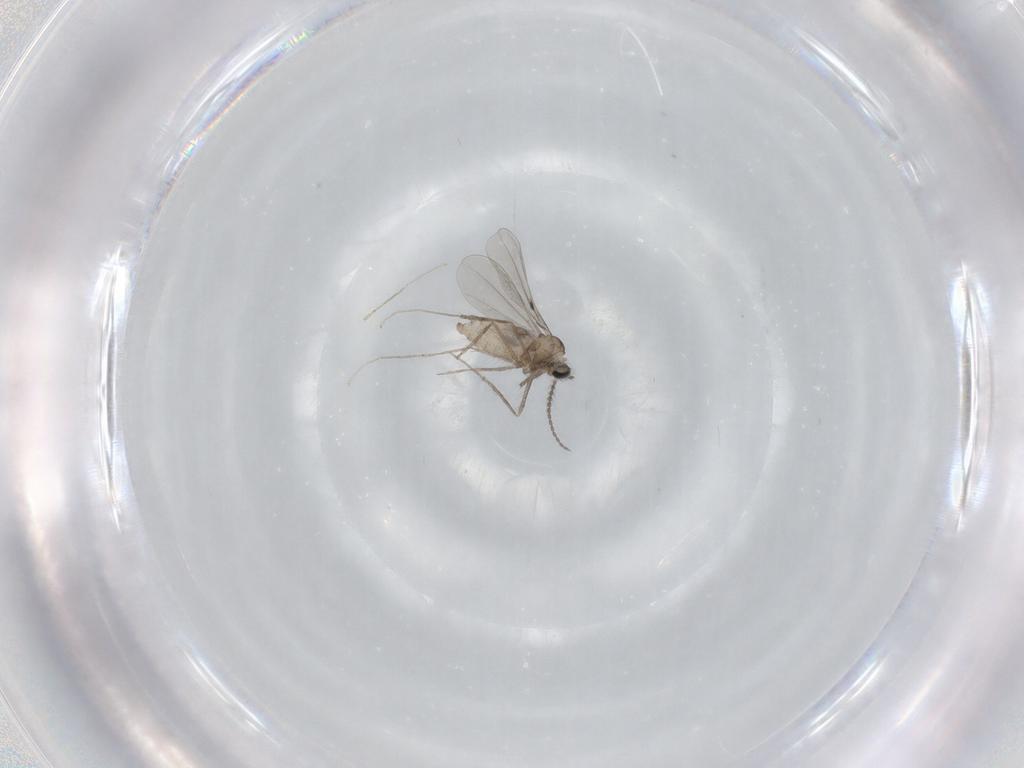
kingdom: Animalia
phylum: Arthropoda
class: Insecta
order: Diptera
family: Cecidomyiidae
